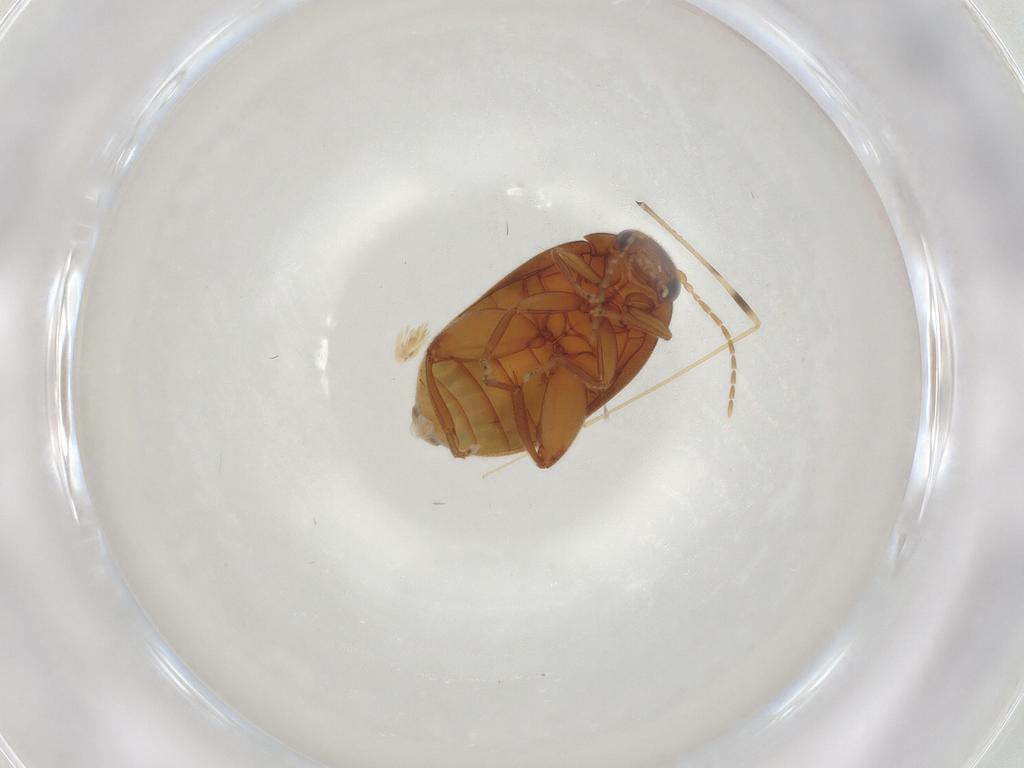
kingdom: Animalia
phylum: Arthropoda
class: Insecta
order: Coleoptera
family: Scirtidae
